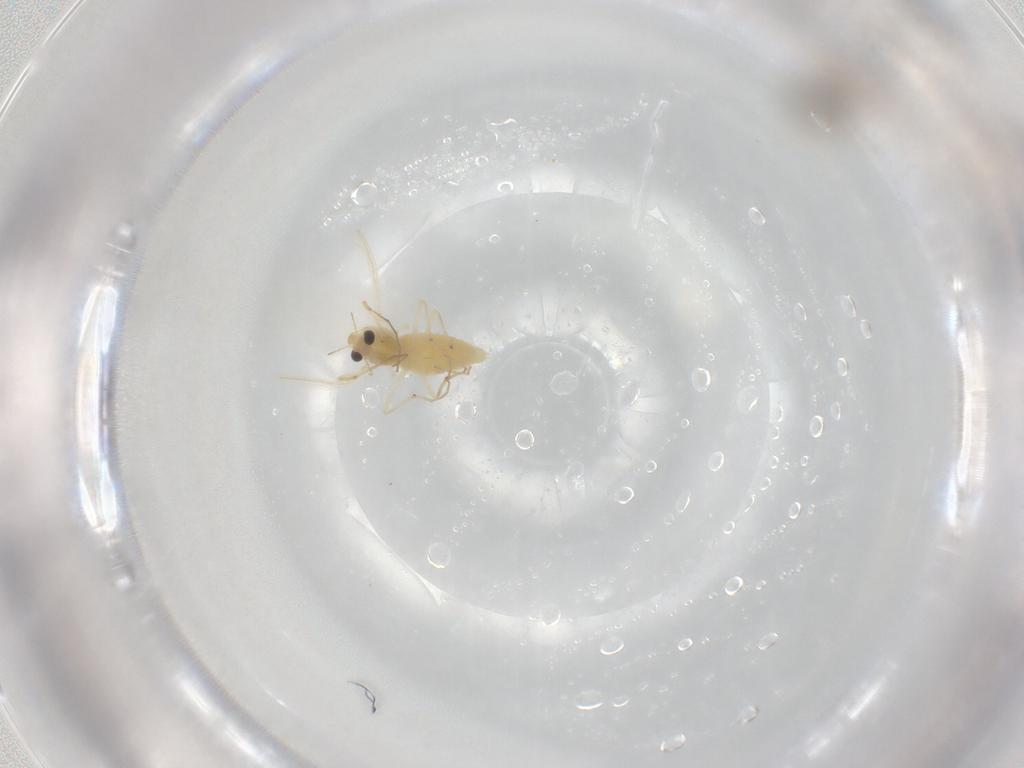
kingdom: Animalia
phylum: Arthropoda
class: Insecta
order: Diptera
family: Chironomidae
